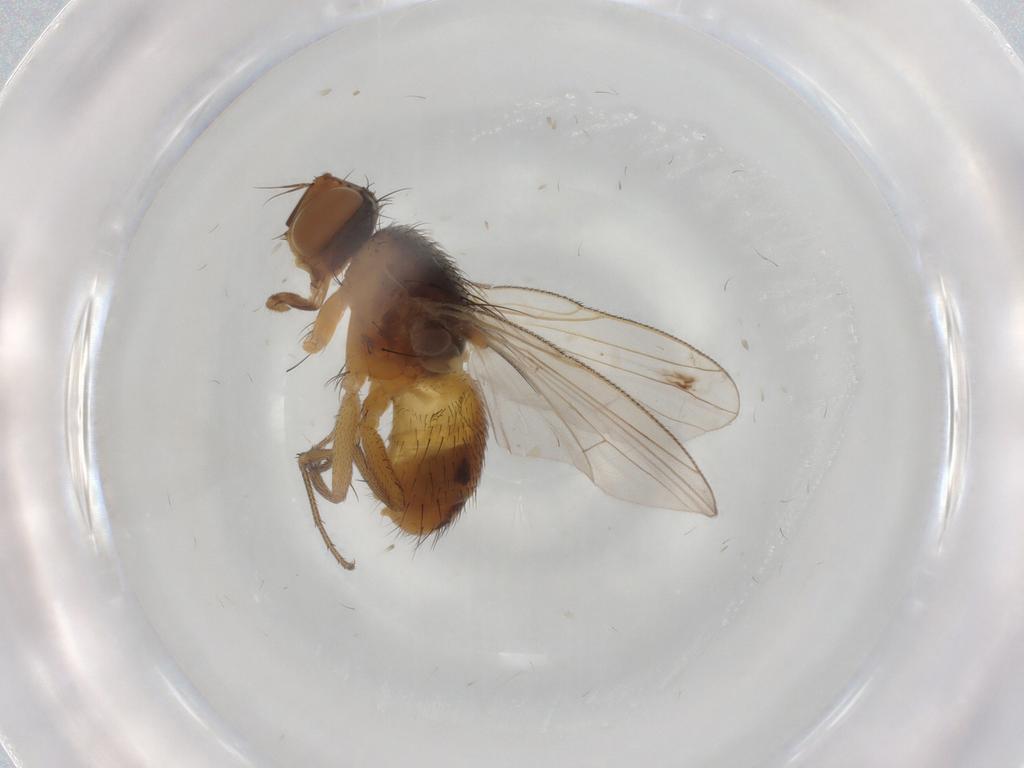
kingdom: Animalia
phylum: Arthropoda
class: Insecta
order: Diptera
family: Muscidae
